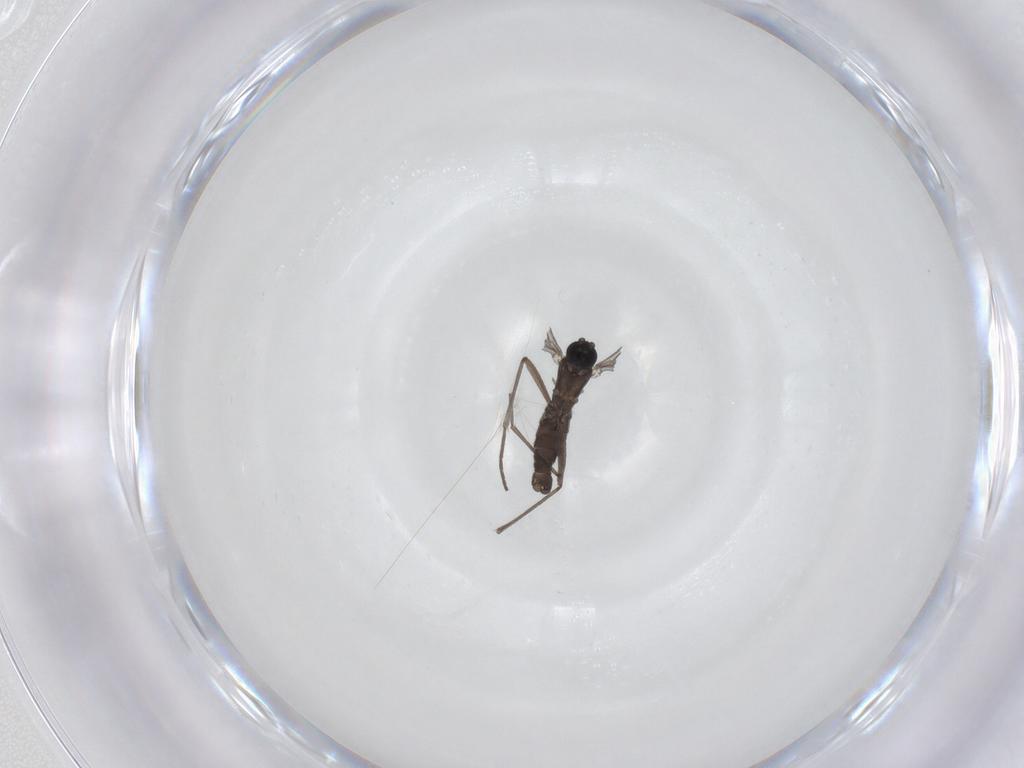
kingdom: Animalia
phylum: Arthropoda
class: Insecta
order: Diptera
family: Sciaridae
